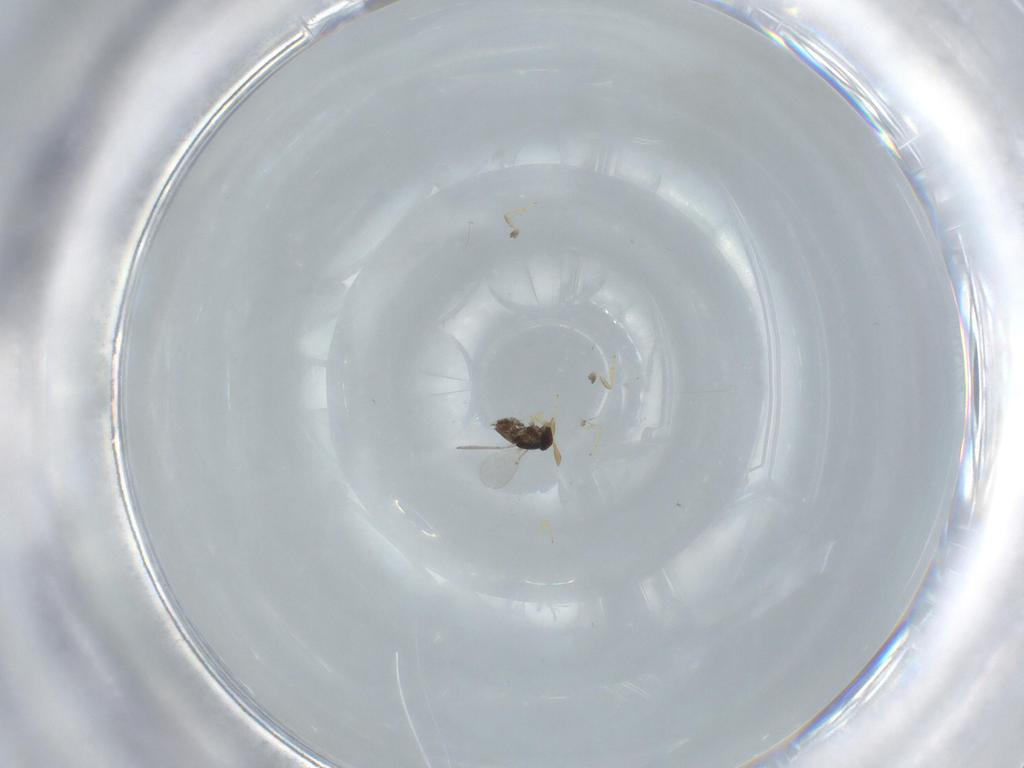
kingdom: Animalia
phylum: Arthropoda
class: Insecta
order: Hymenoptera
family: Encyrtidae
